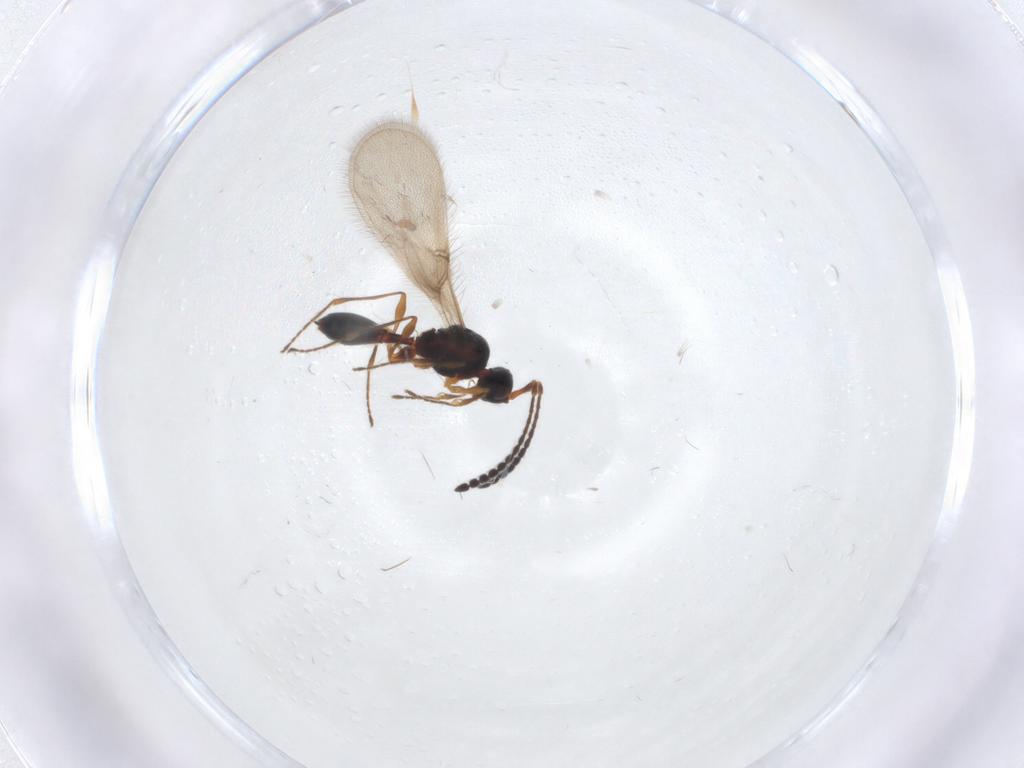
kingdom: Animalia
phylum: Arthropoda
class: Insecta
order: Hymenoptera
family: Diapriidae
